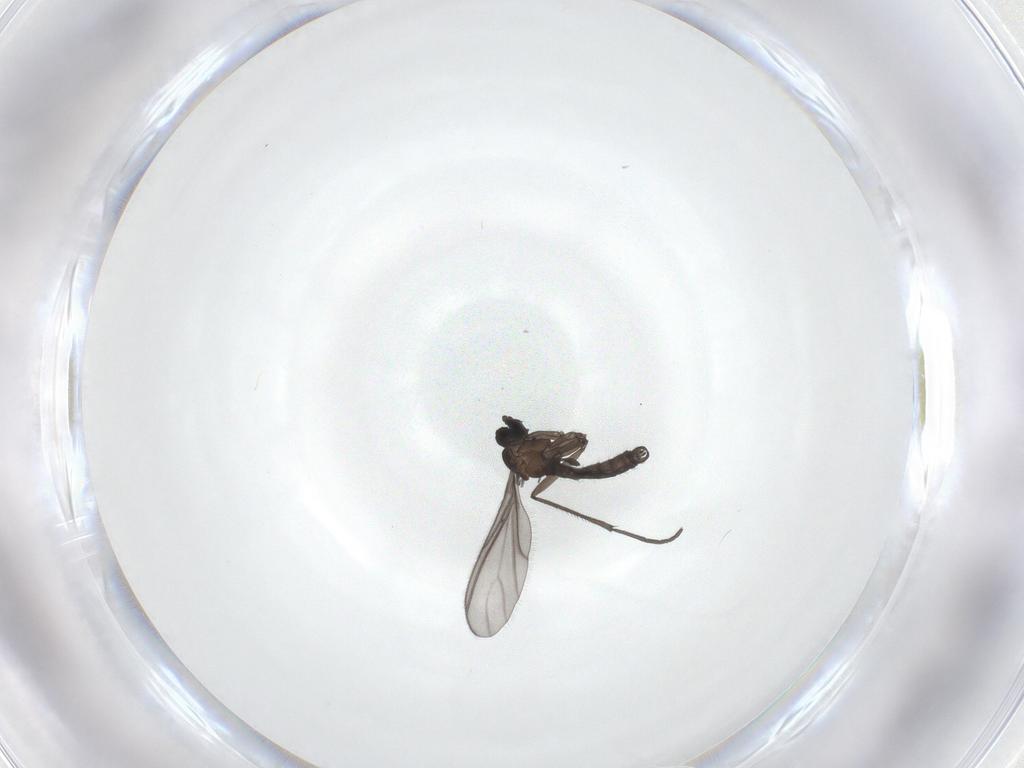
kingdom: Animalia
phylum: Arthropoda
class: Insecta
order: Diptera
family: Sciaridae
